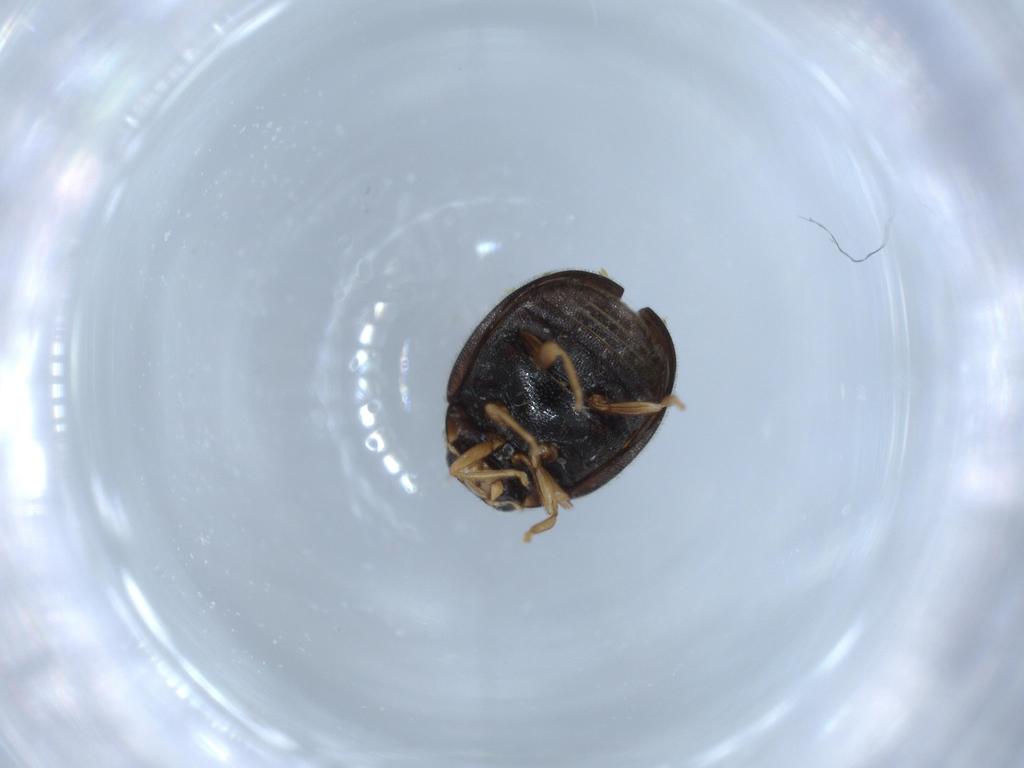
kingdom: Animalia
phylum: Arthropoda
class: Insecta
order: Coleoptera
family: Coccinellidae
